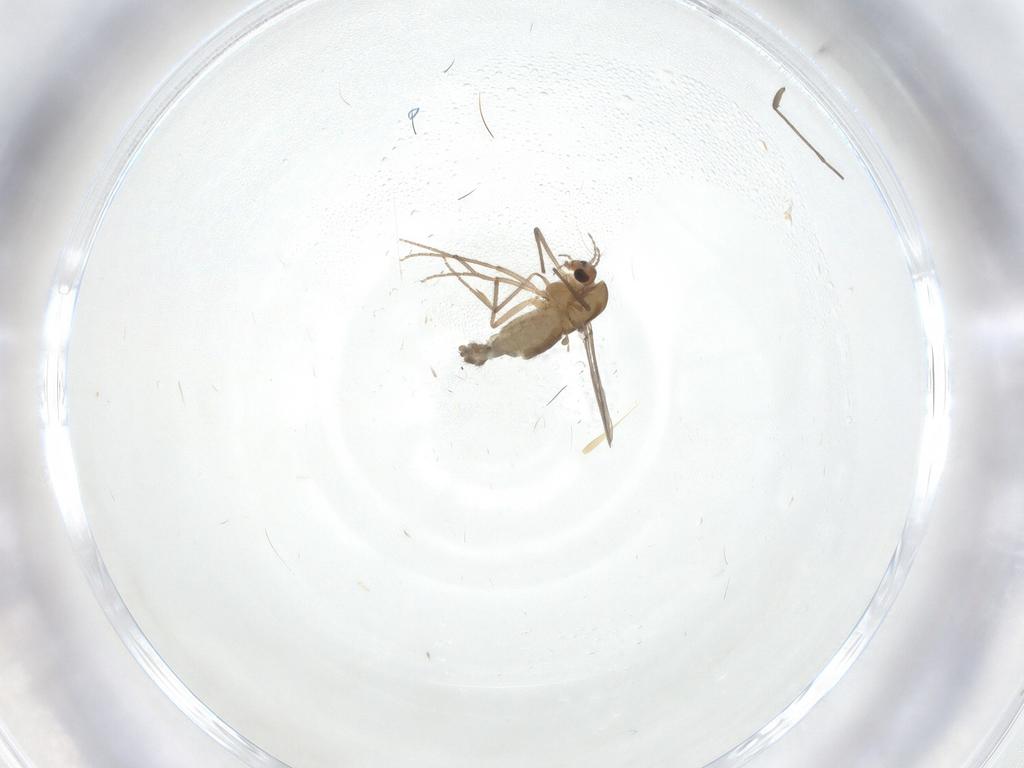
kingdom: Animalia
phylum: Arthropoda
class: Insecta
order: Diptera
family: Chironomidae
